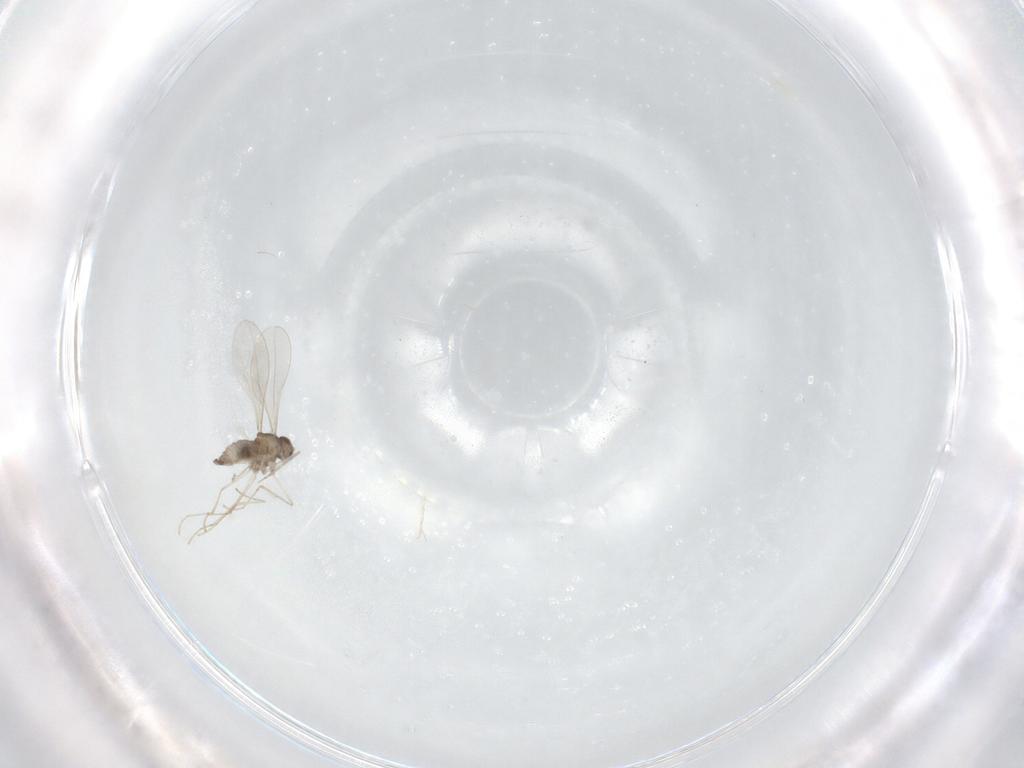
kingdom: Animalia
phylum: Arthropoda
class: Insecta
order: Diptera
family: Cecidomyiidae
